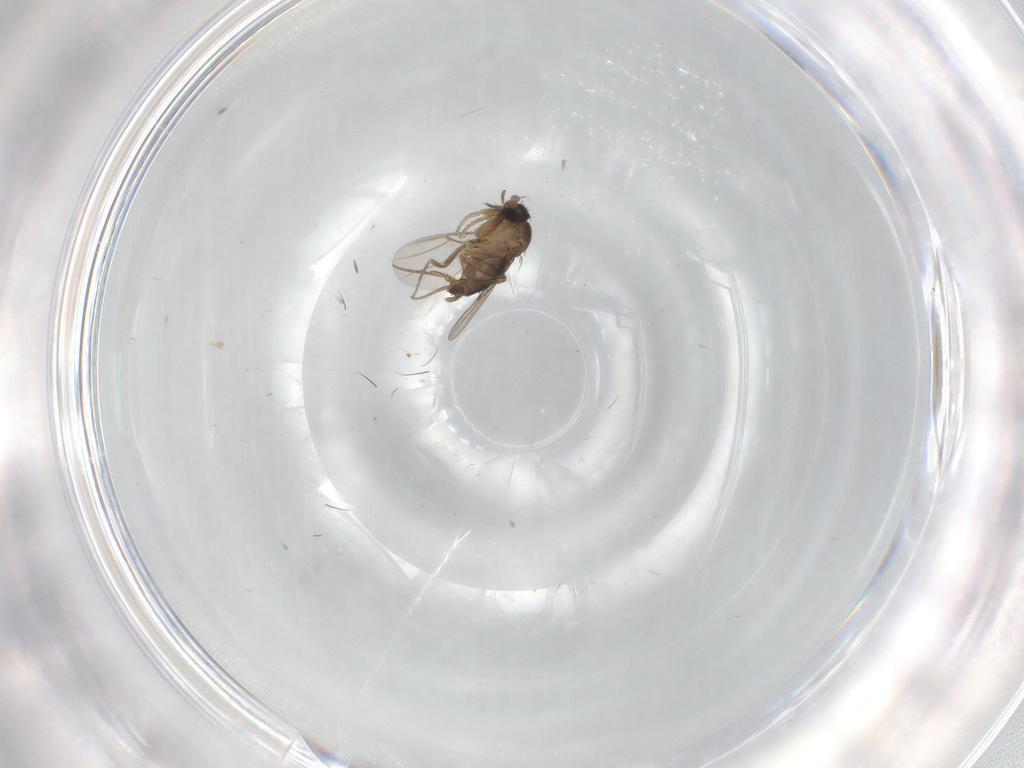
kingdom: Animalia
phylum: Arthropoda
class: Insecta
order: Diptera
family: Phoridae
